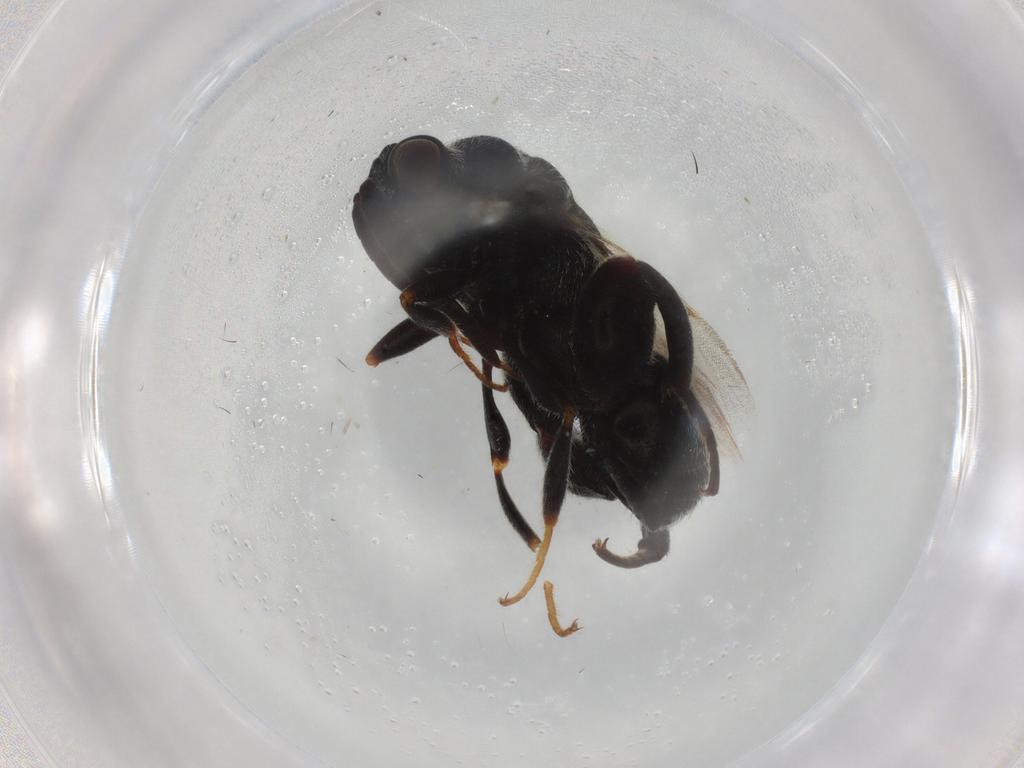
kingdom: Animalia
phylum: Arthropoda
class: Insecta
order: Hymenoptera
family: Chalcididae
